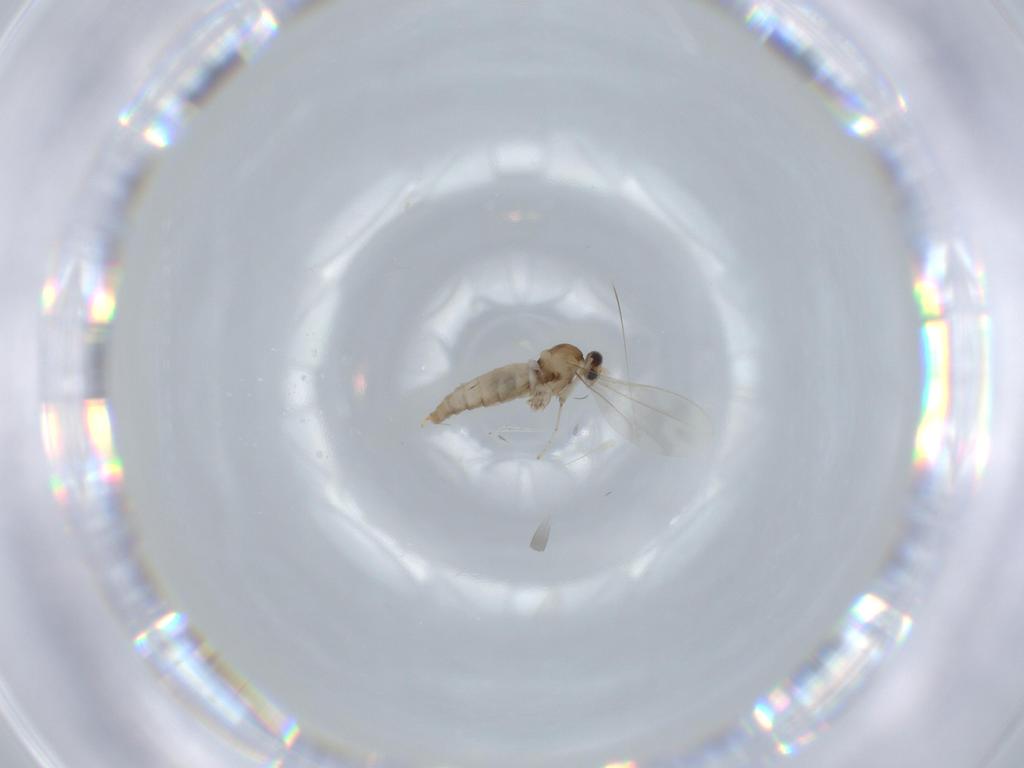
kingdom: Animalia
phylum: Arthropoda
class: Insecta
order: Diptera
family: Cecidomyiidae
